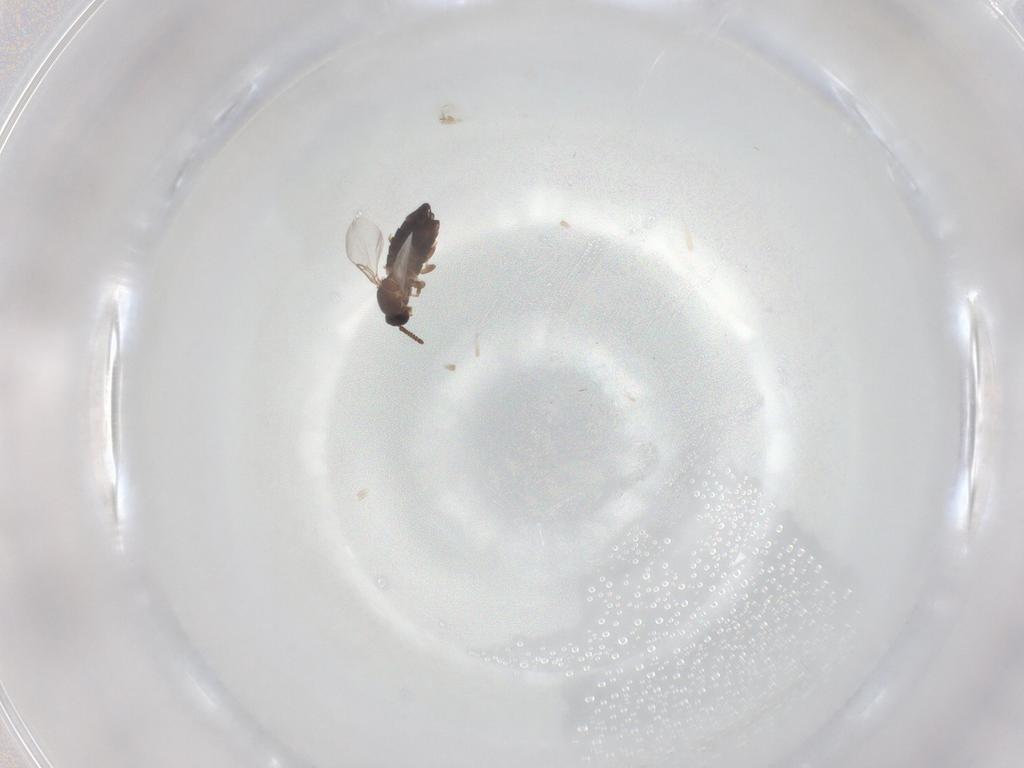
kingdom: Animalia
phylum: Arthropoda
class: Insecta
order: Diptera
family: Scatopsidae
